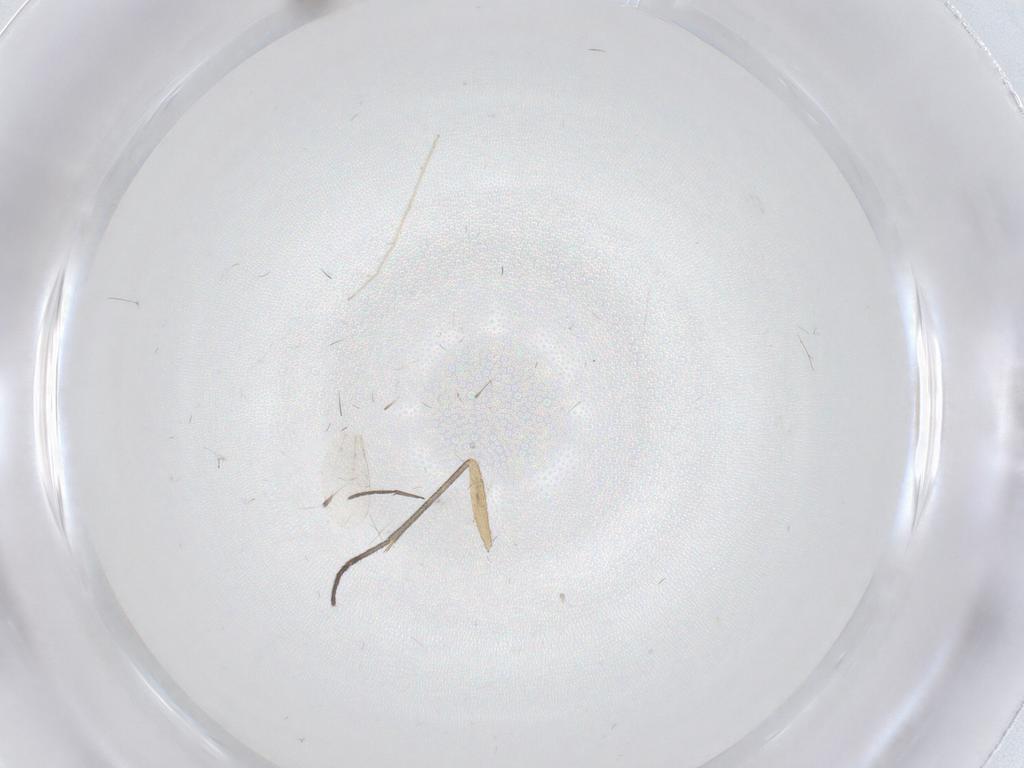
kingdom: Animalia
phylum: Arthropoda
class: Insecta
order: Diptera
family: Sciaridae
